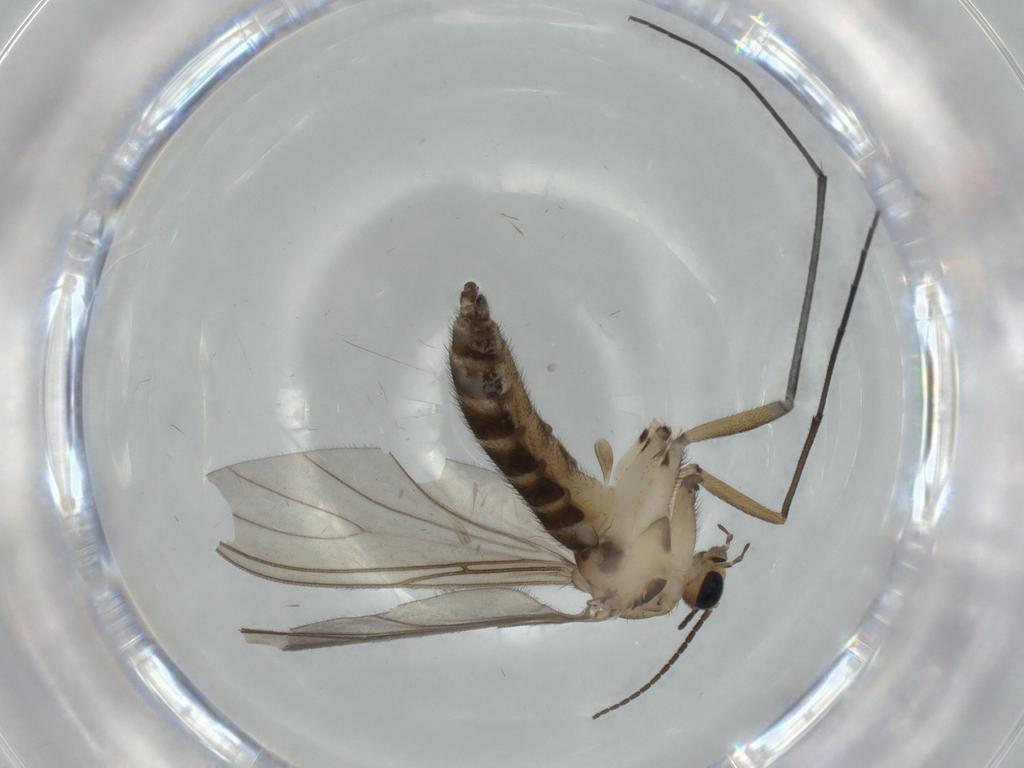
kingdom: Animalia
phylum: Arthropoda
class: Insecta
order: Diptera
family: Sciaridae
